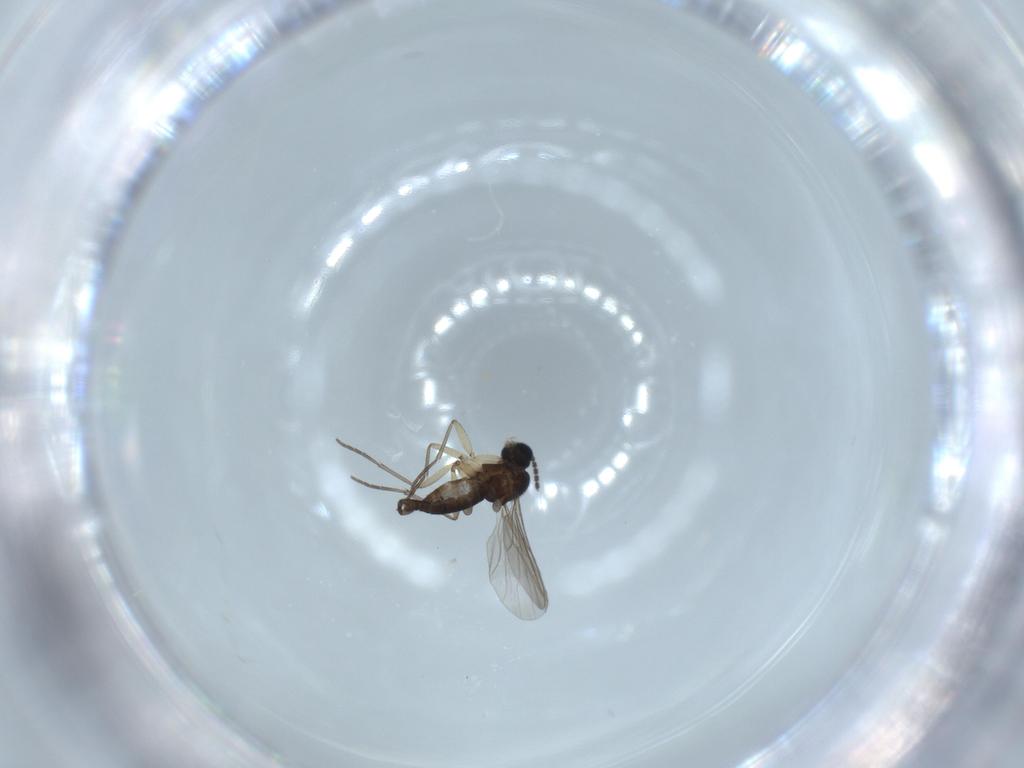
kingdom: Animalia
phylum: Arthropoda
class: Insecta
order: Diptera
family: Sciaridae
